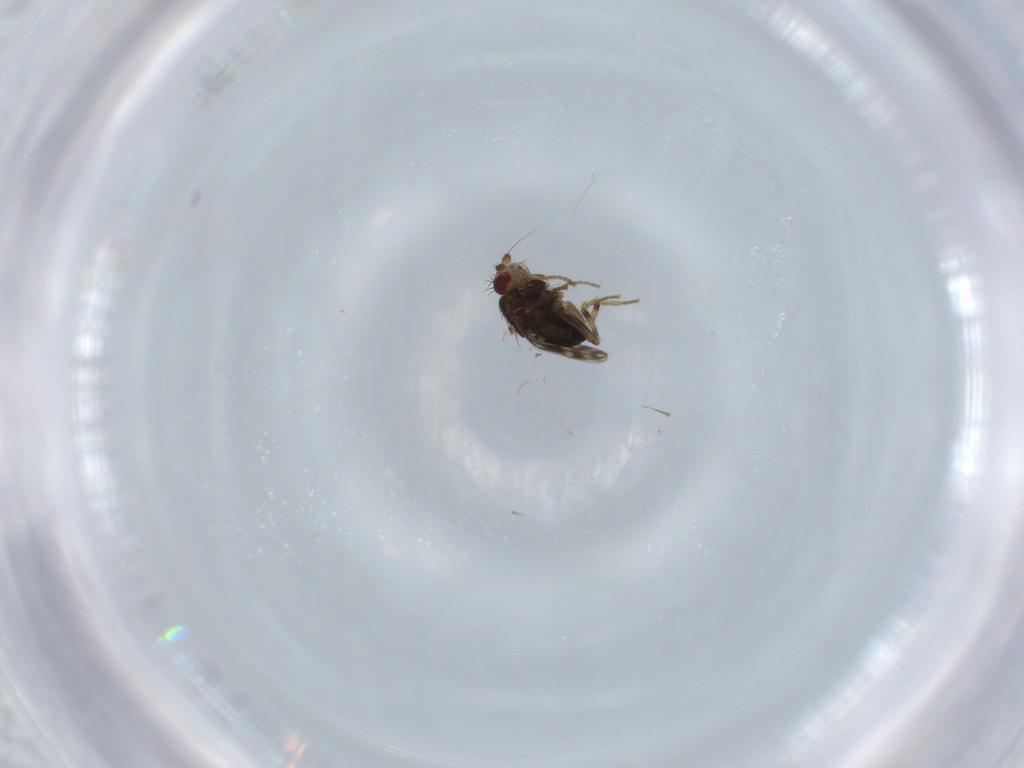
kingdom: Animalia
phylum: Arthropoda
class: Insecta
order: Diptera
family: Sphaeroceridae
